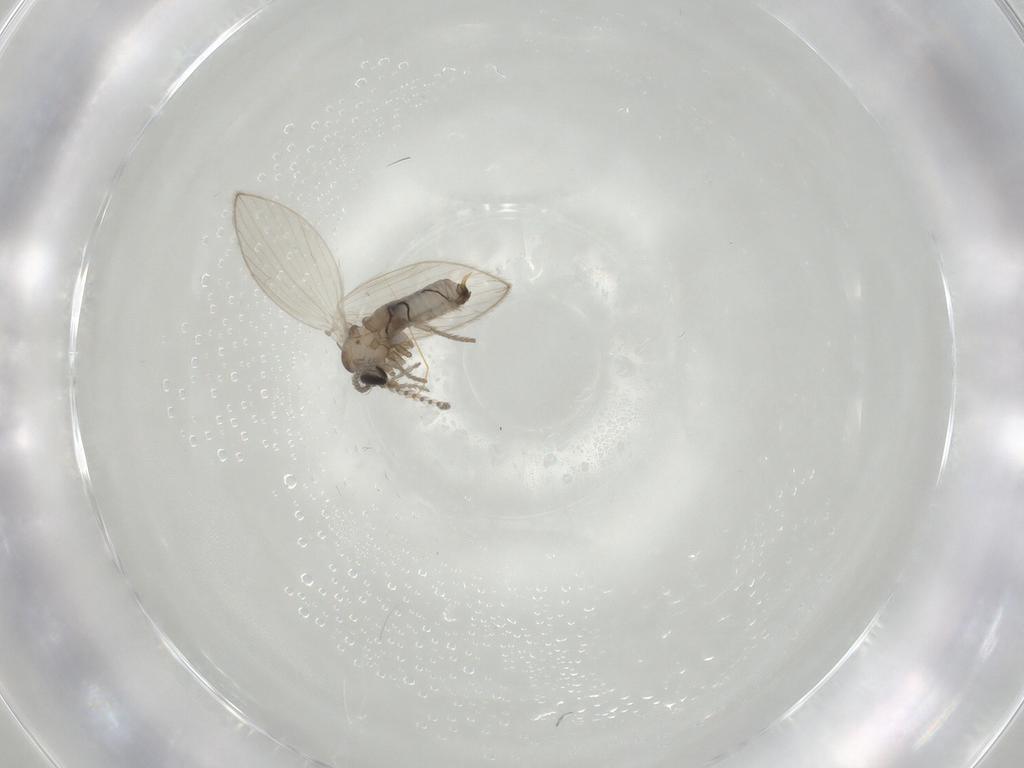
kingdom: Animalia
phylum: Arthropoda
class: Insecta
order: Diptera
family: Psychodidae
